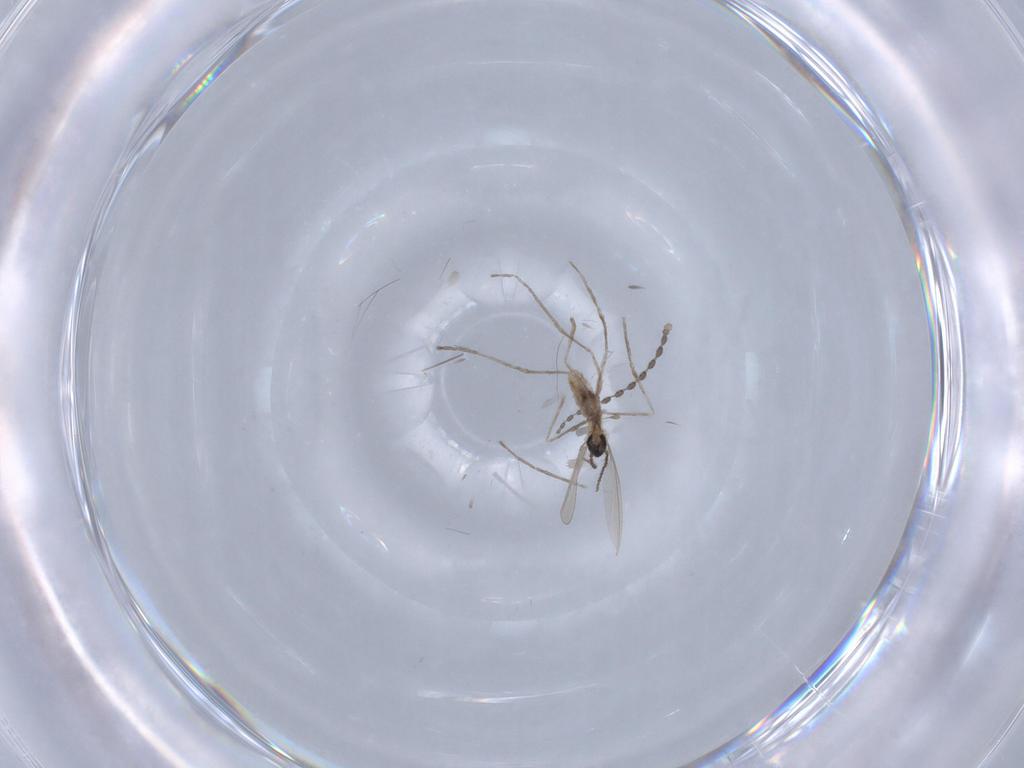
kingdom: Animalia
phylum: Arthropoda
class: Insecta
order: Diptera
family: Cecidomyiidae
